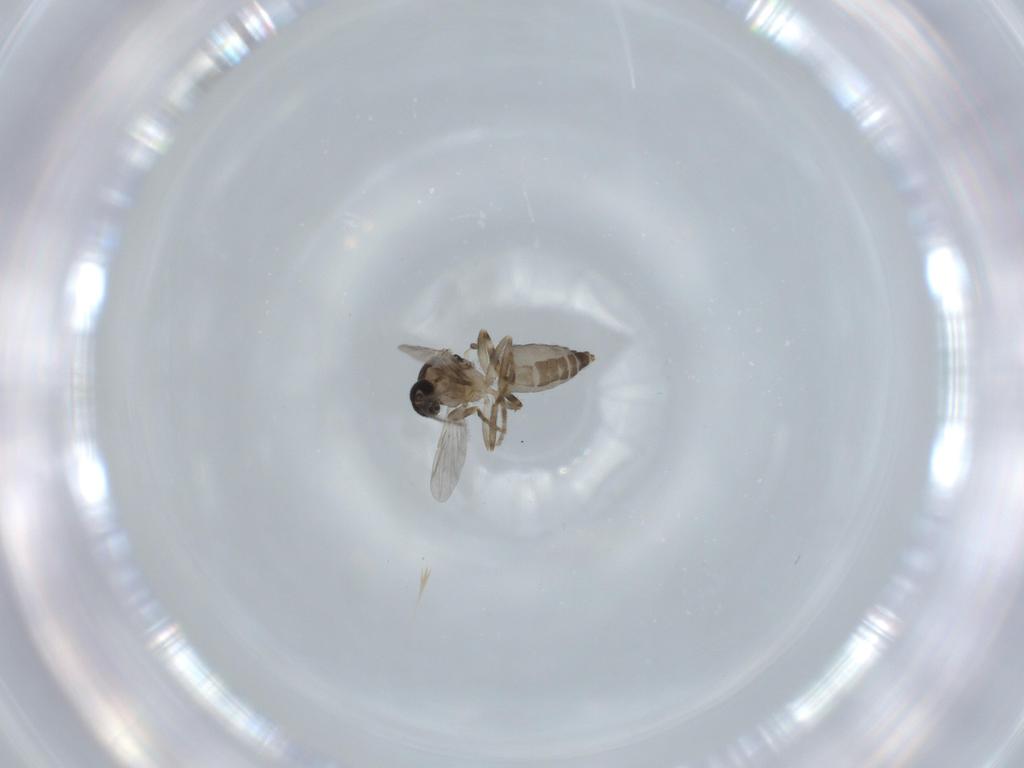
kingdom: Animalia
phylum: Arthropoda
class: Insecta
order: Diptera
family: Ceratopogonidae
